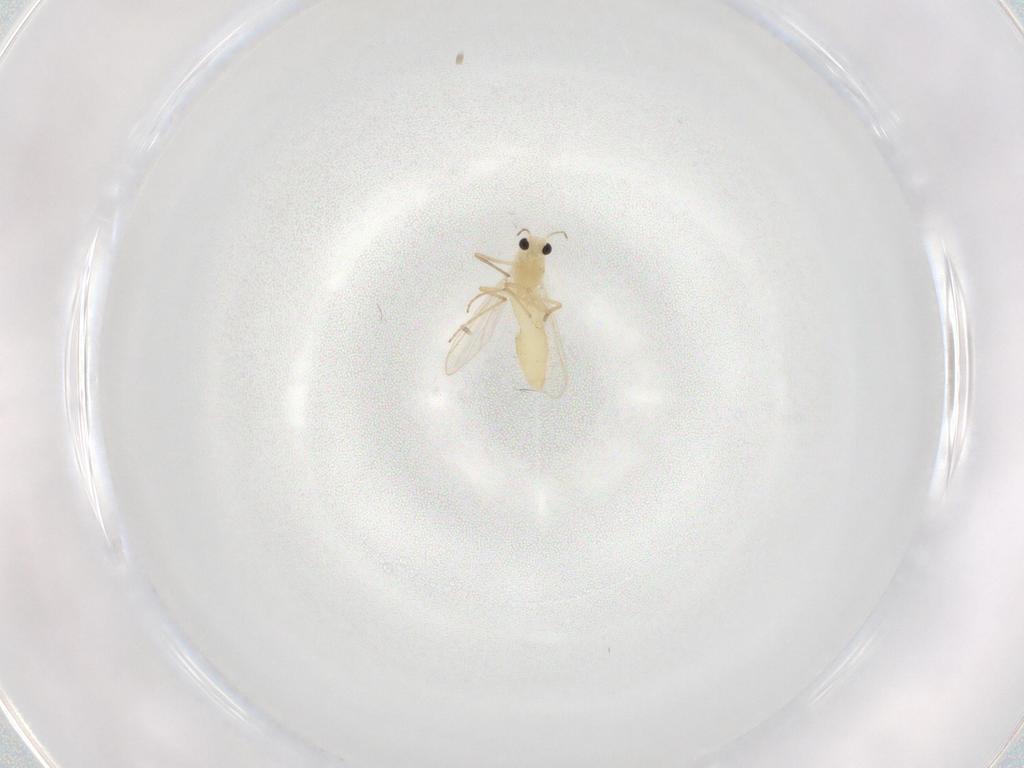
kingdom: Animalia
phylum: Arthropoda
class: Insecta
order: Diptera
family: Chironomidae
